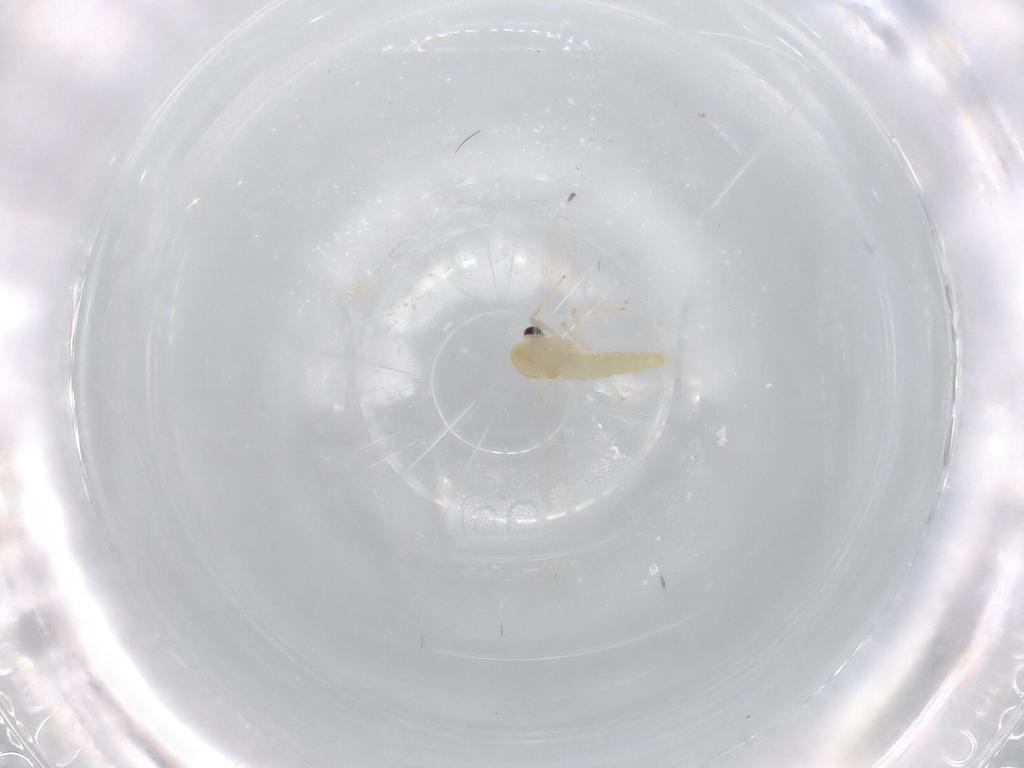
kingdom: Animalia
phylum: Arthropoda
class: Insecta
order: Diptera
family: Chironomidae
